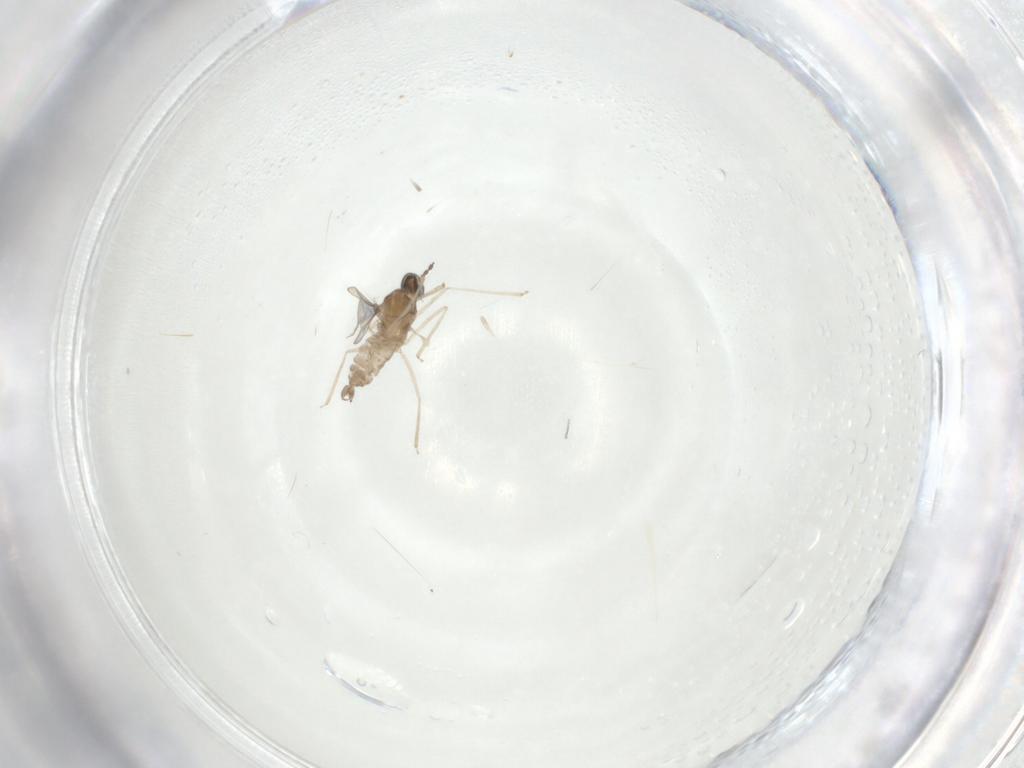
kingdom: Animalia
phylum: Arthropoda
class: Insecta
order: Diptera
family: Cecidomyiidae
